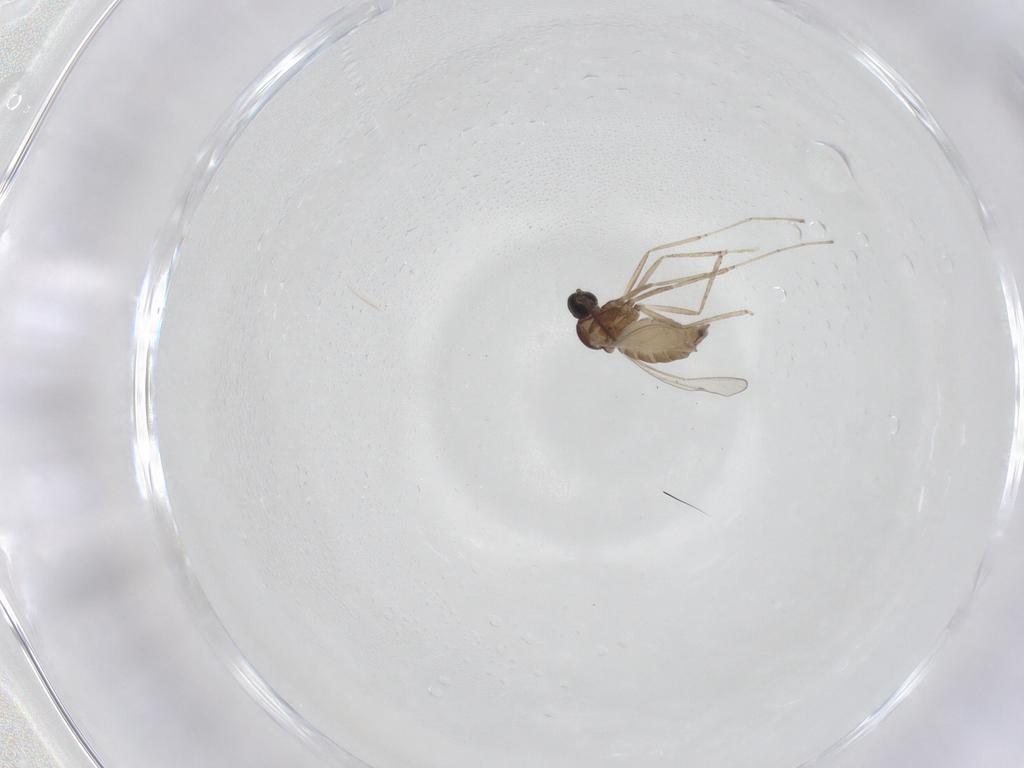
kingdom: Animalia
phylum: Arthropoda
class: Insecta
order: Diptera
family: Cecidomyiidae
